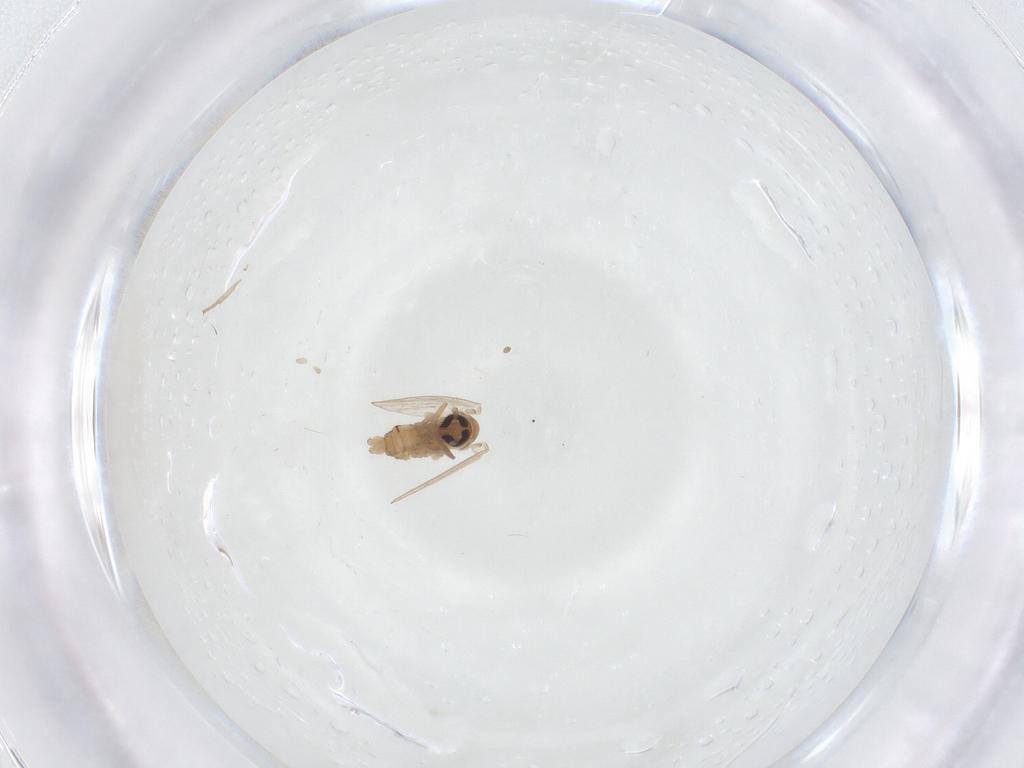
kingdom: Animalia
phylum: Arthropoda
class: Insecta
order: Diptera
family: Psychodidae
